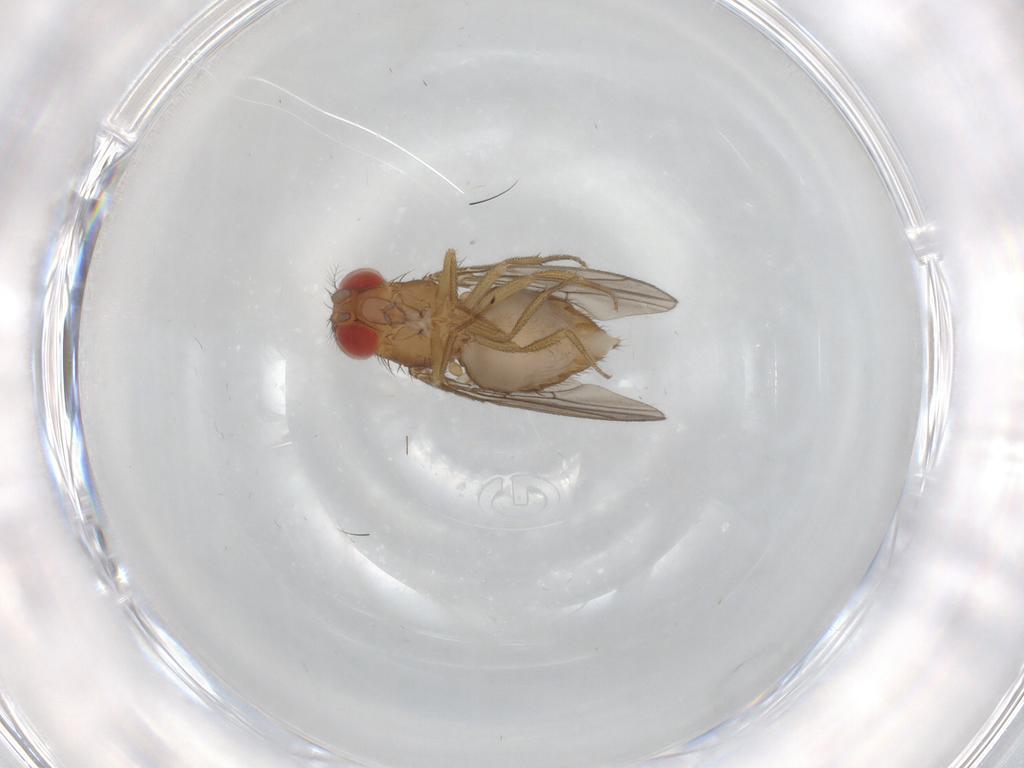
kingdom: Animalia
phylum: Arthropoda
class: Insecta
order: Diptera
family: Drosophilidae
